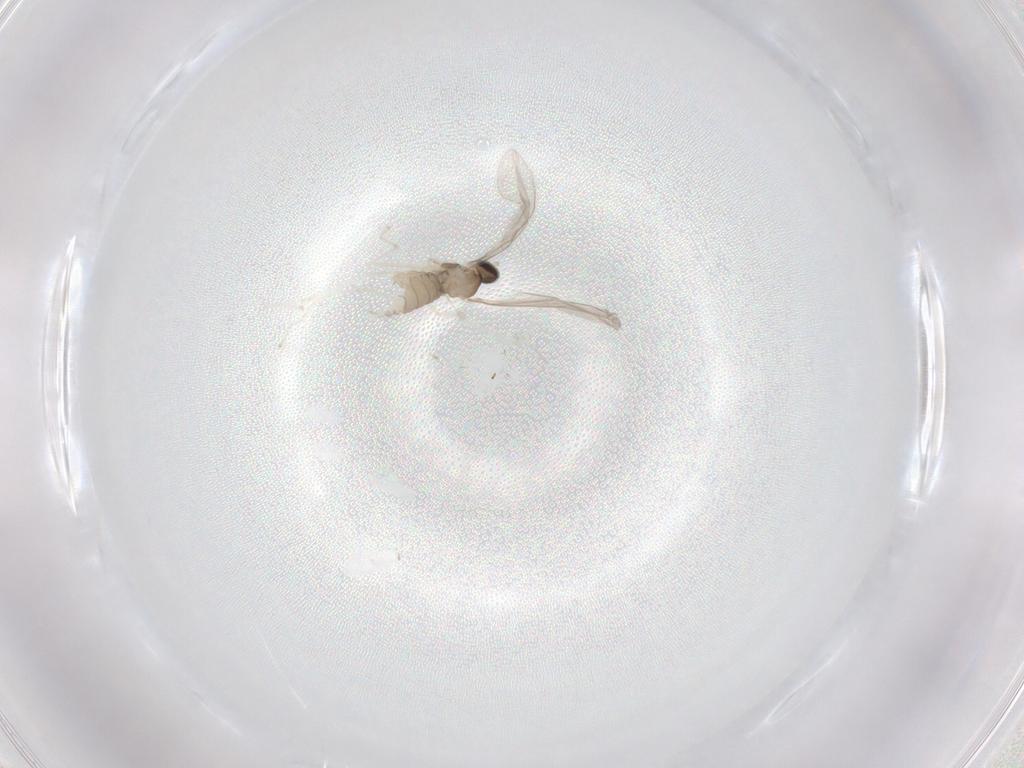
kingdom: Animalia
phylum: Arthropoda
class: Insecta
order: Diptera
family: Cecidomyiidae
